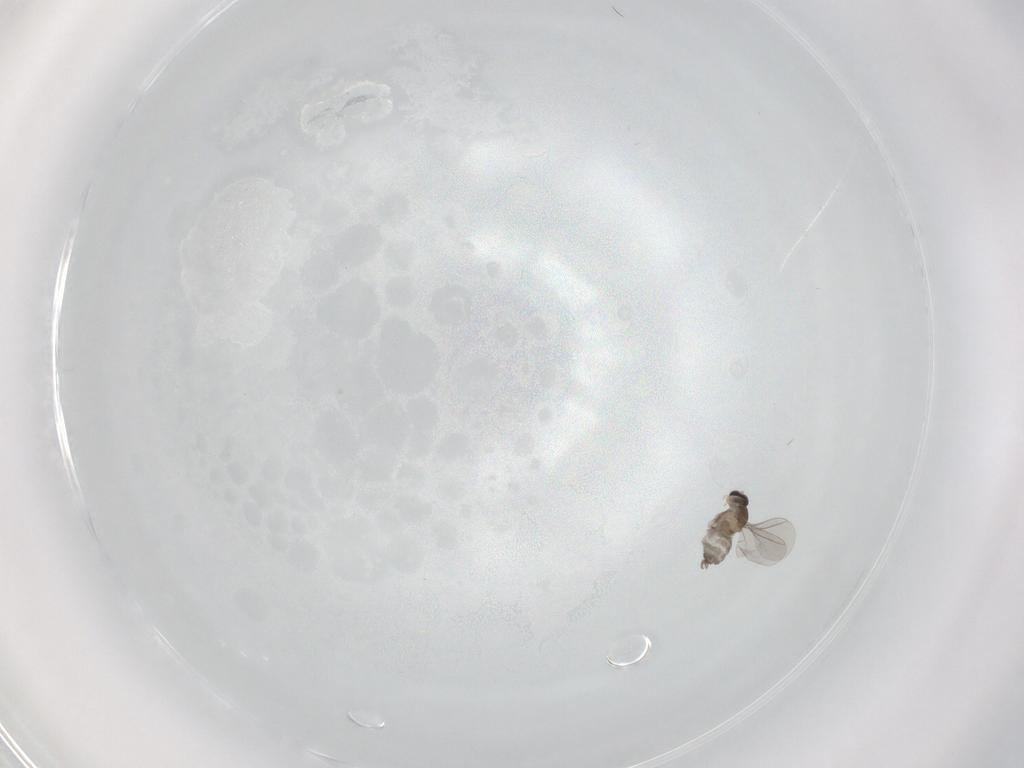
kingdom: Animalia
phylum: Arthropoda
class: Insecta
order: Diptera
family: Cecidomyiidae
